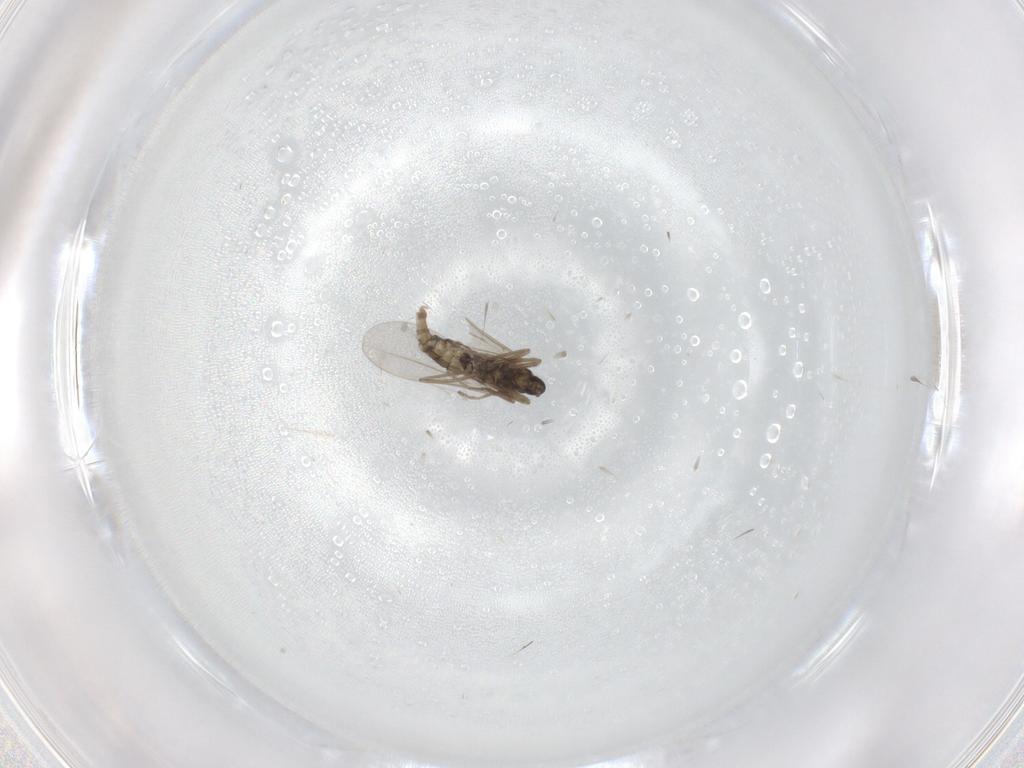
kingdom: Animalia
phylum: Arthropoda
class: Insecta
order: Diptera
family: Cecidomyiidae
